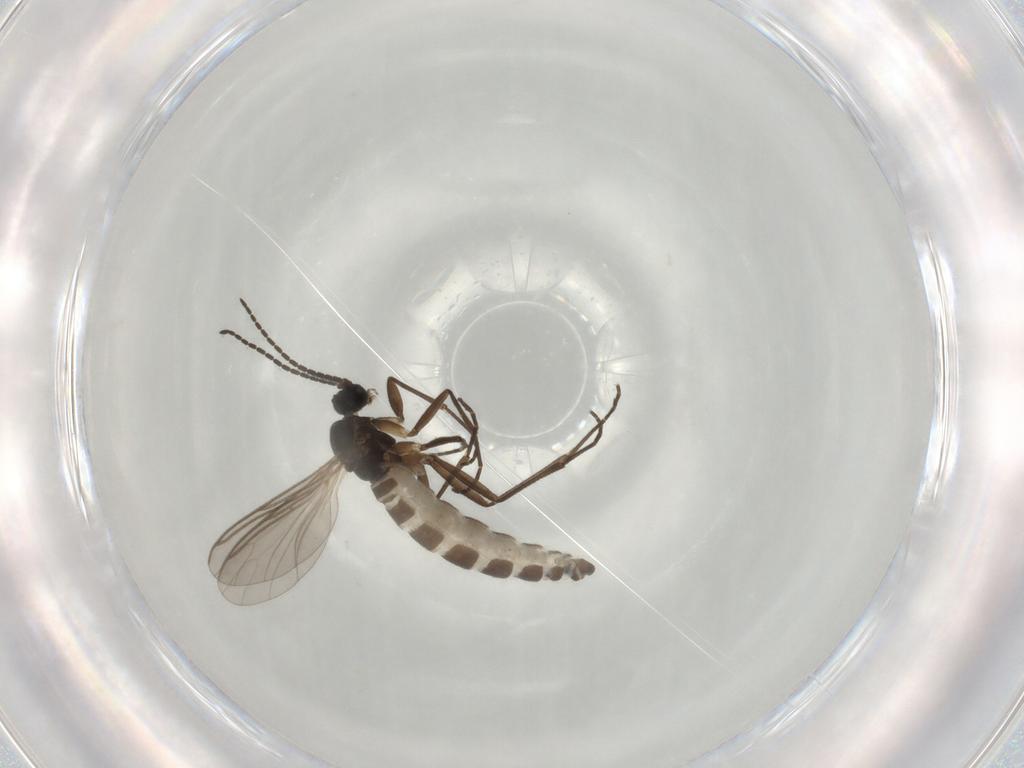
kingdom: Animalia
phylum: Arthropoda
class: Insecta
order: Diptera
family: Sciaridae
